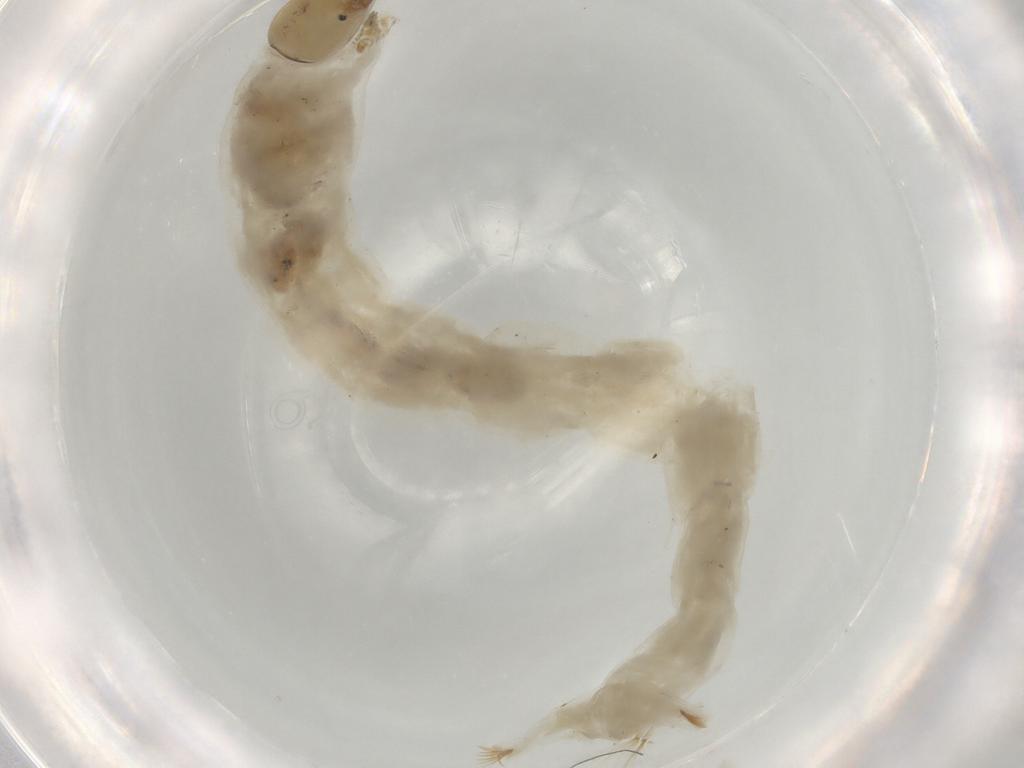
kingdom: Animalia
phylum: Arthropoda
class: Insecta
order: Diptera
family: Chironomidae
